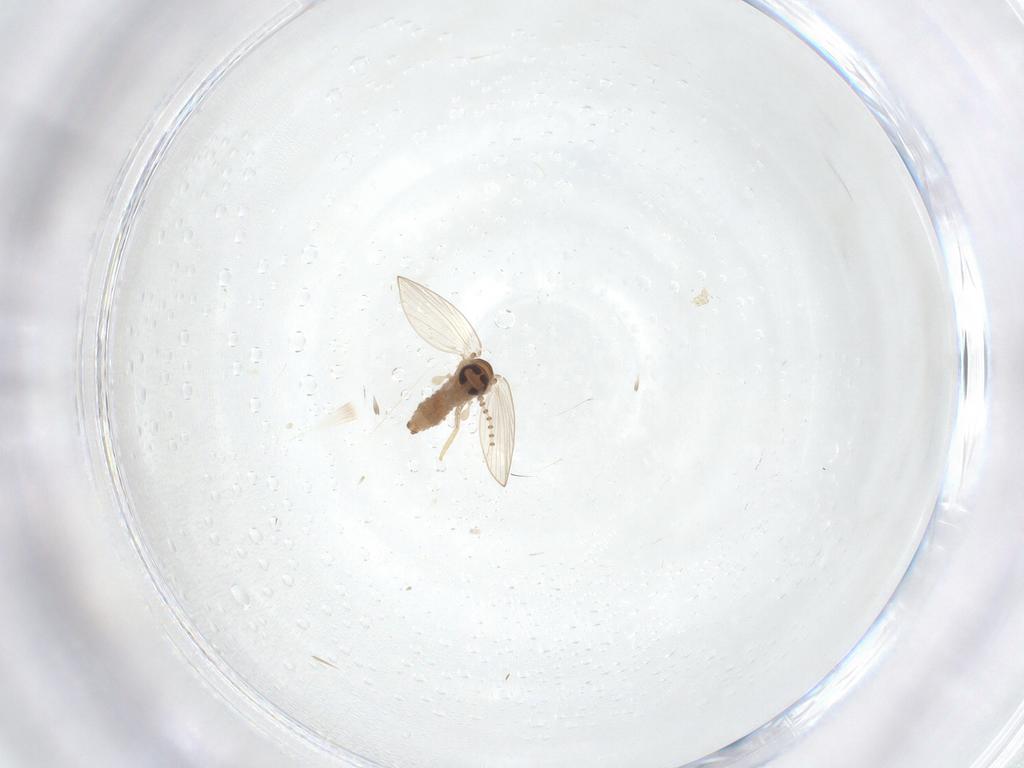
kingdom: Animalia
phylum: Arthropoda
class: Insecta
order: Diptera
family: Psychodidae
